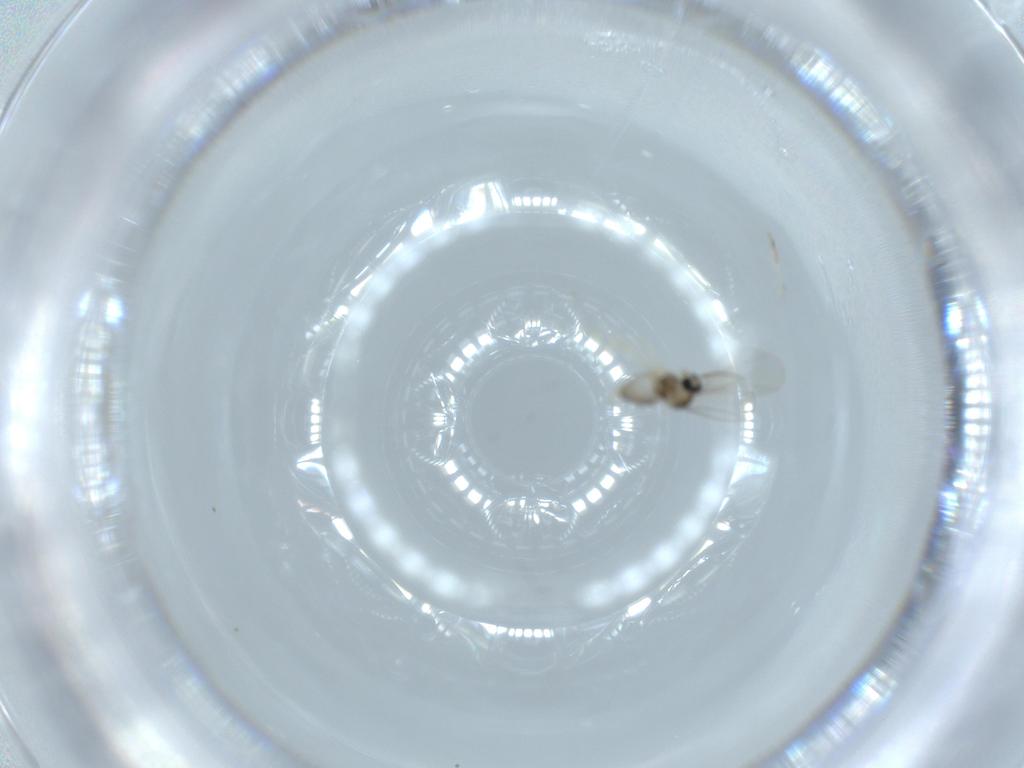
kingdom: Animalia
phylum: Arthropoda
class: Insecta
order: Diptera
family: Cecidomyiidae
